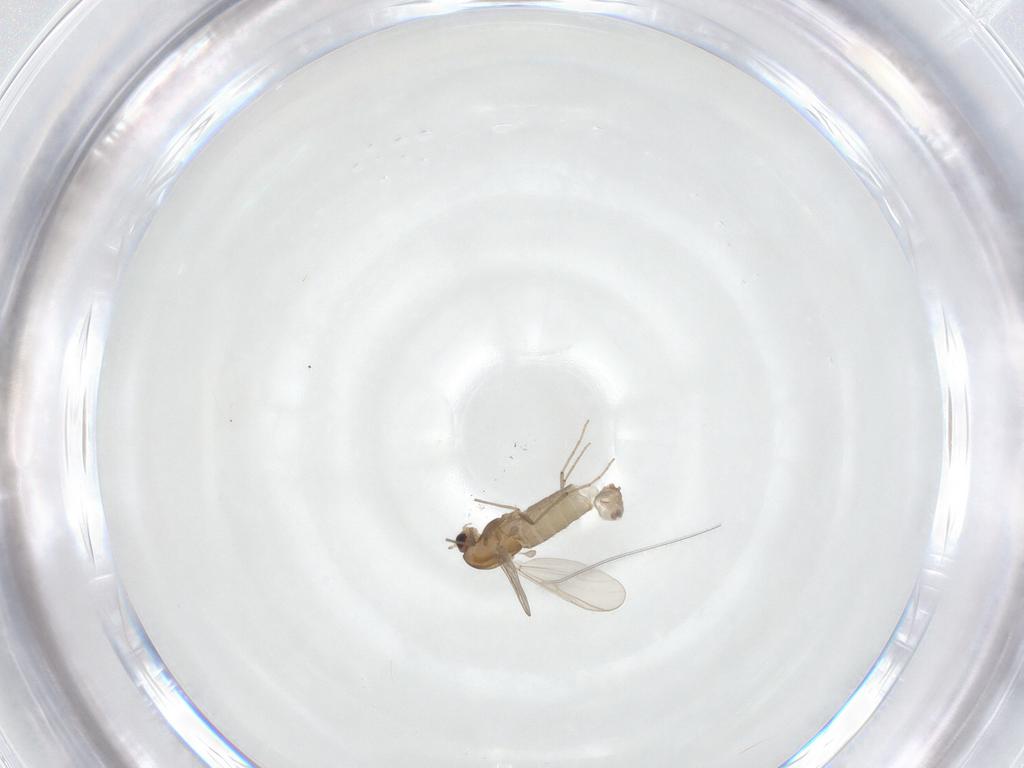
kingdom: Animalia
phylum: Arthropoda
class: Insecta
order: Diptera
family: Chironomidae
